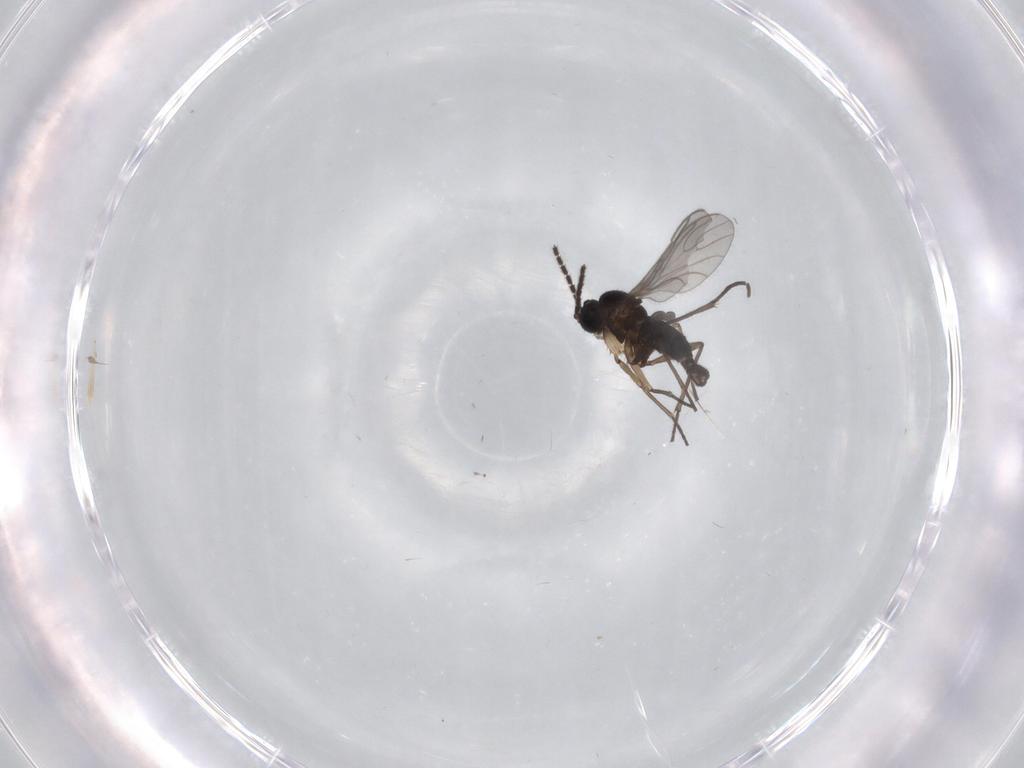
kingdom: Animalia
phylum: Arthropoda
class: Insecta
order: Diptera
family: Sciaridae
